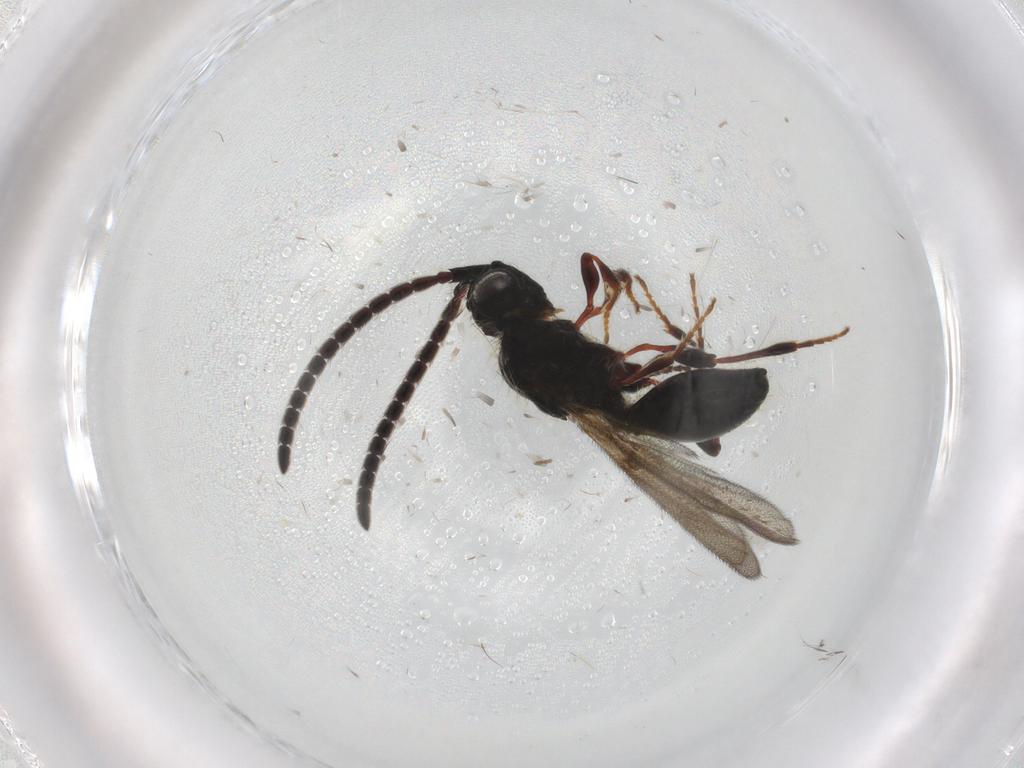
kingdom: Animalia
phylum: Arthropoda
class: Insecta
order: Hymenoptera
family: Diapriidae
